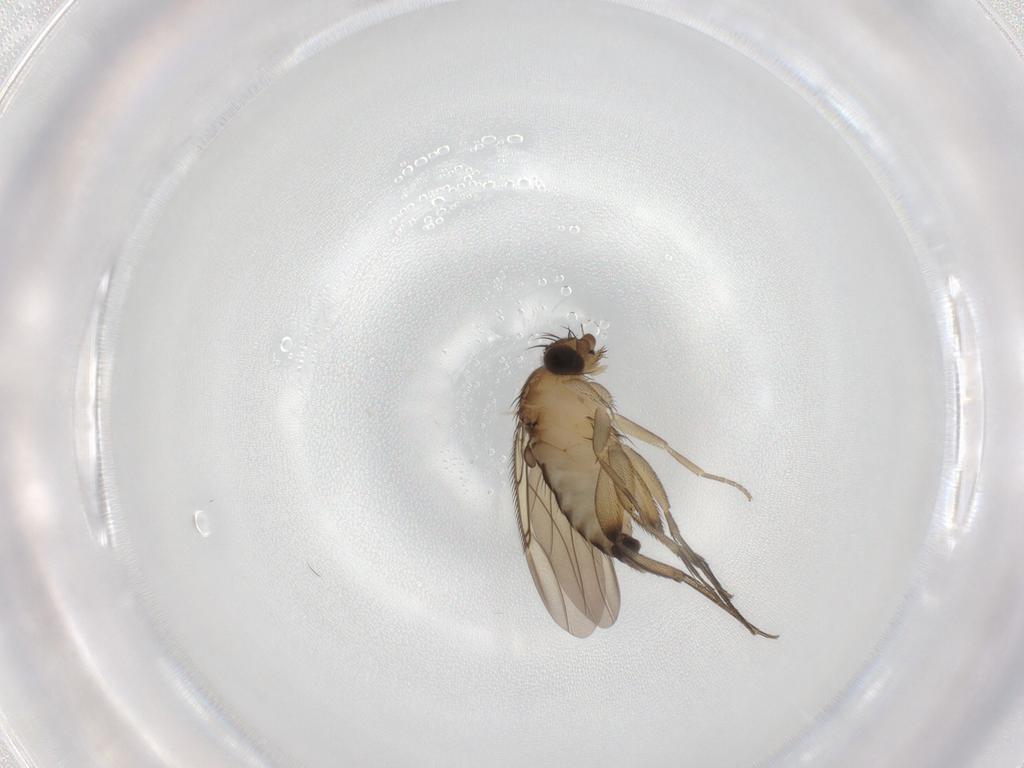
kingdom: Animalia
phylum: Arthropoda
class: Insecta
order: Diptera
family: Phoridae
